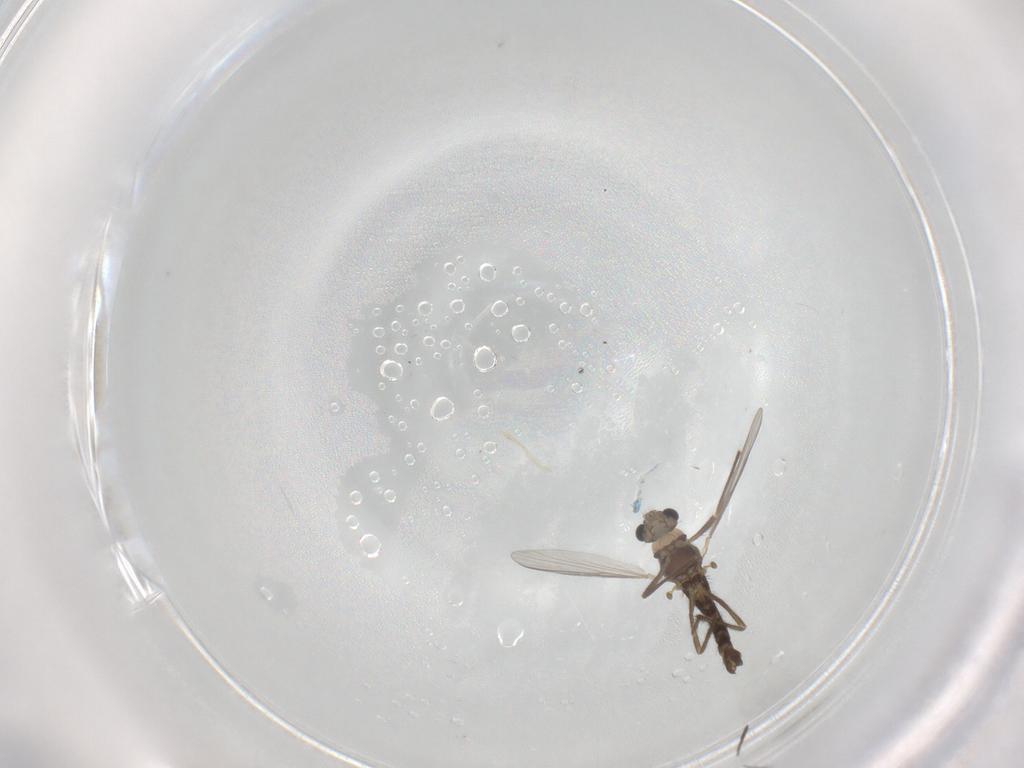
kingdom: Animalia
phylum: Arthropoda
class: Insecta
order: Diptera
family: Chironomidae
